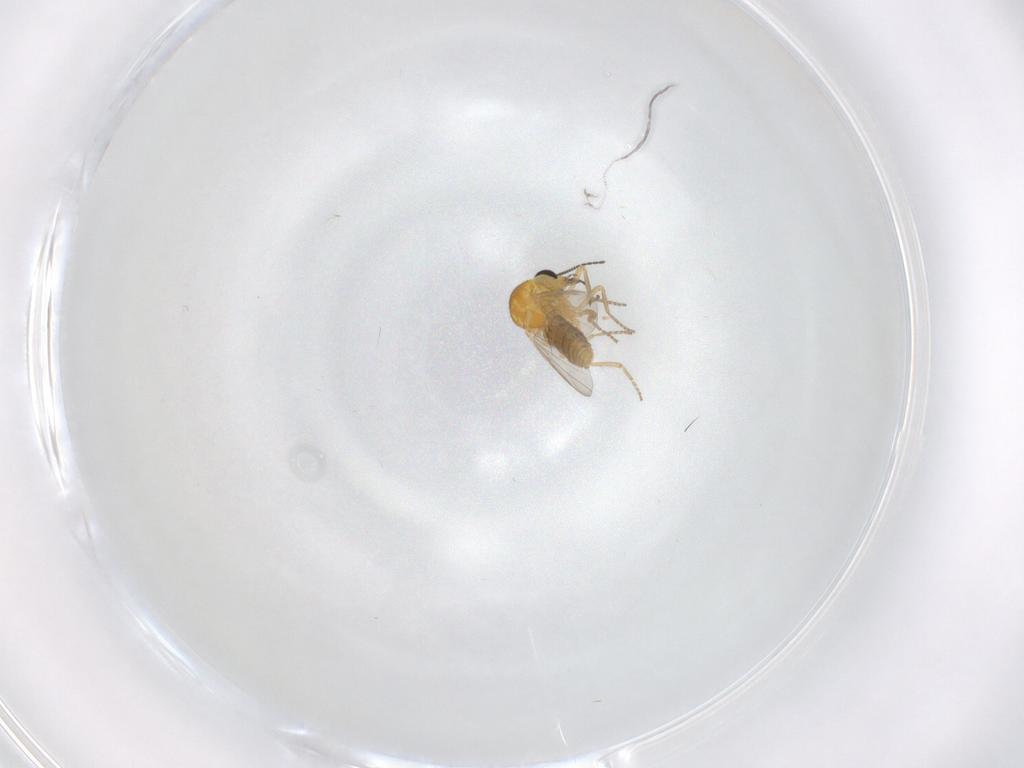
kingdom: Animalia
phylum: Arthropoda
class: Insecta
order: Diptera
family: Ceratopogonidae
